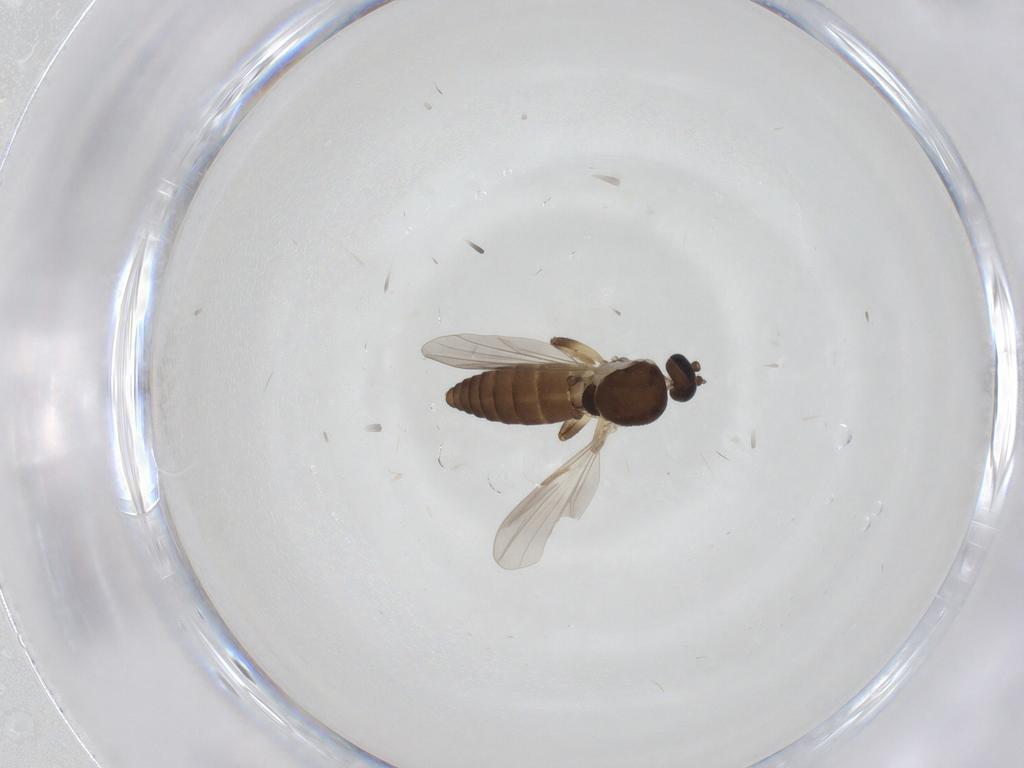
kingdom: Animalia
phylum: Arthropoda
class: Insecta
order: Diptera
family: Ceratopogonidae
